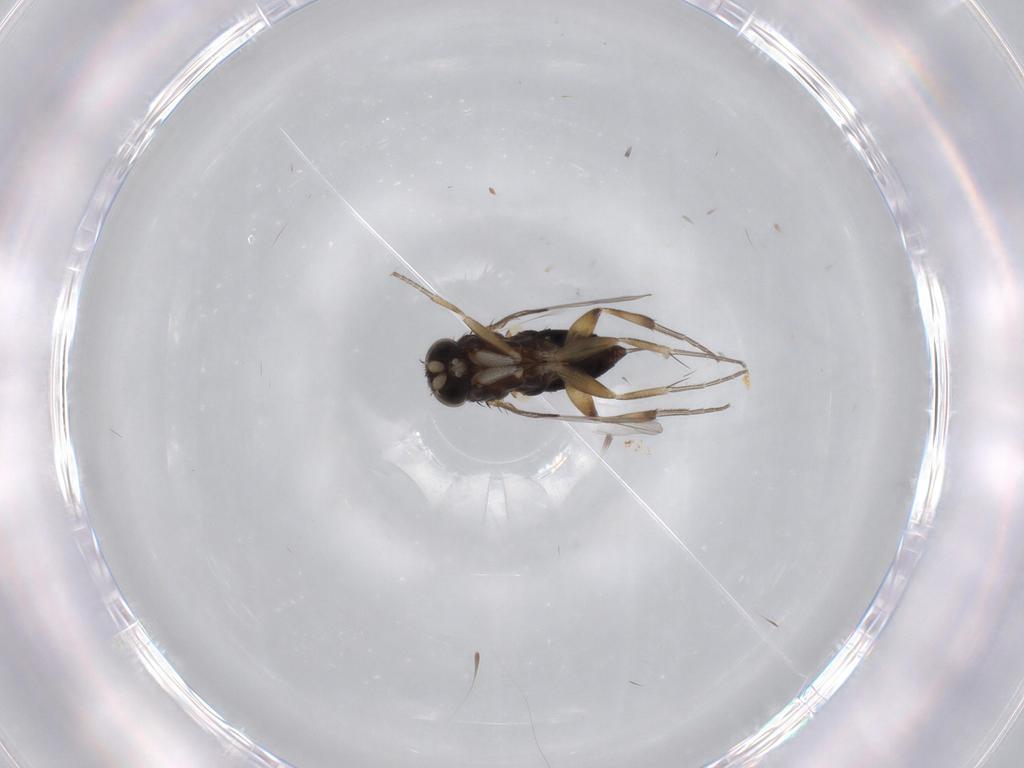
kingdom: Animalia
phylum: Arthropoda
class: Insecta
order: Diptera
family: Phoridae
